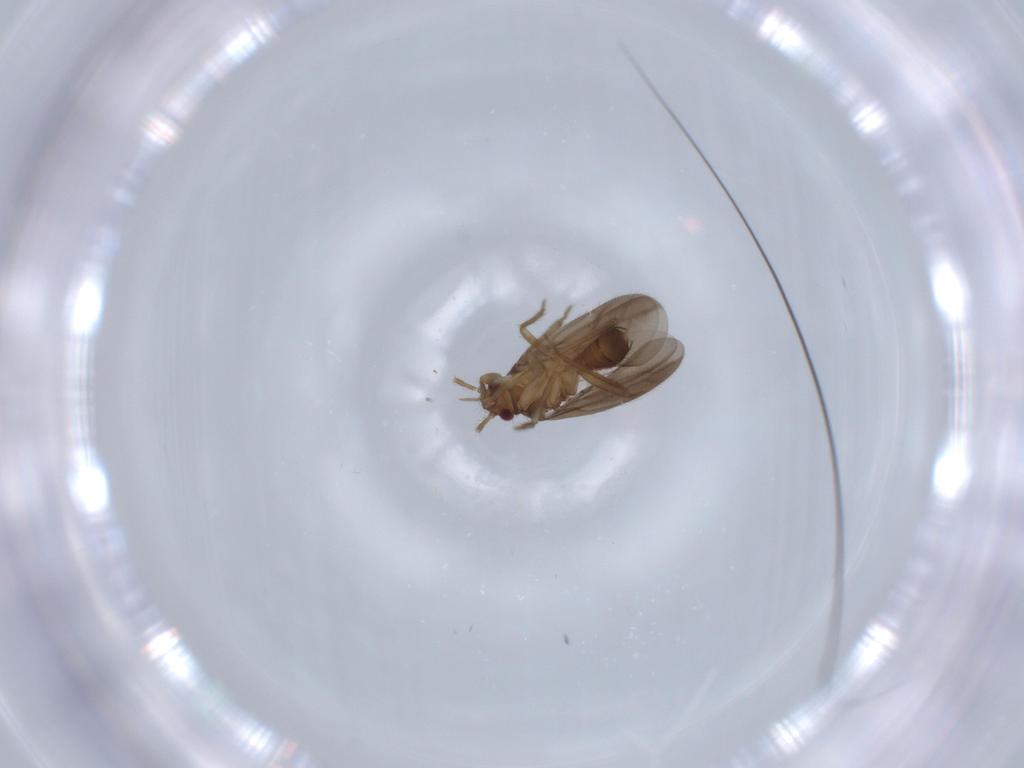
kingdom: Animalia
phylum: Arthropoda
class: Insecta
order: Hemiptera
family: Ceratocombidae
